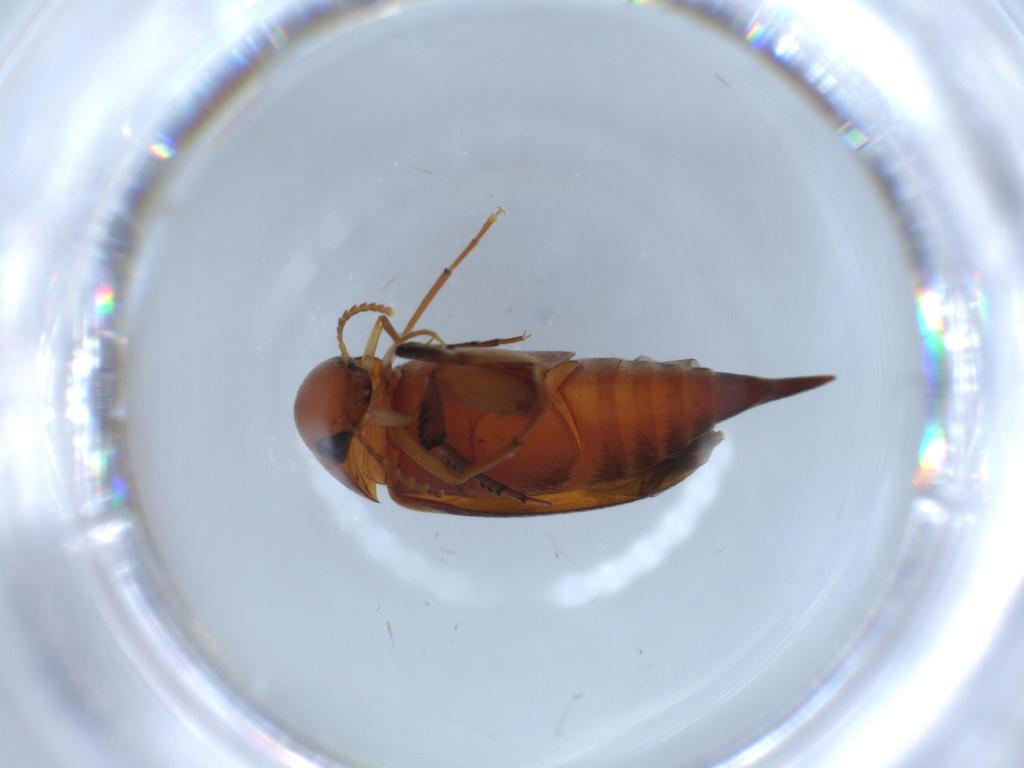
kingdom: Animalia
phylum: Arthropoda
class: Insecta
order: Coleoptera
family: Mordellidae
